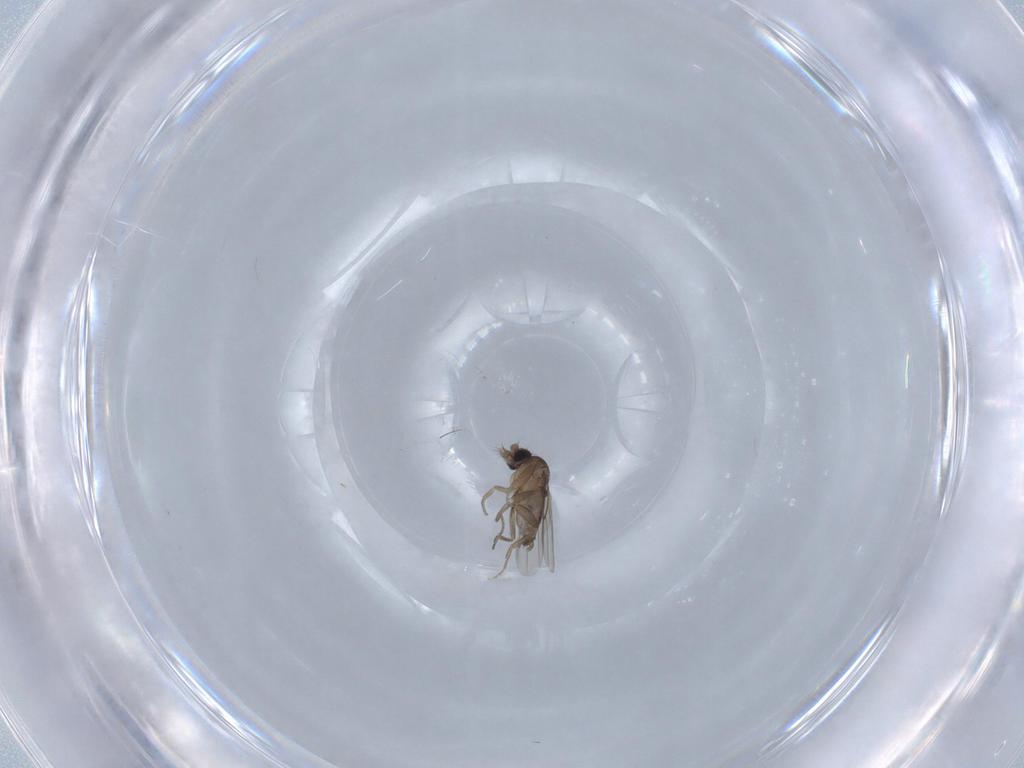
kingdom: Animalia
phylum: Arthropoda
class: Insecta
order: Diptera
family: Phoridae
